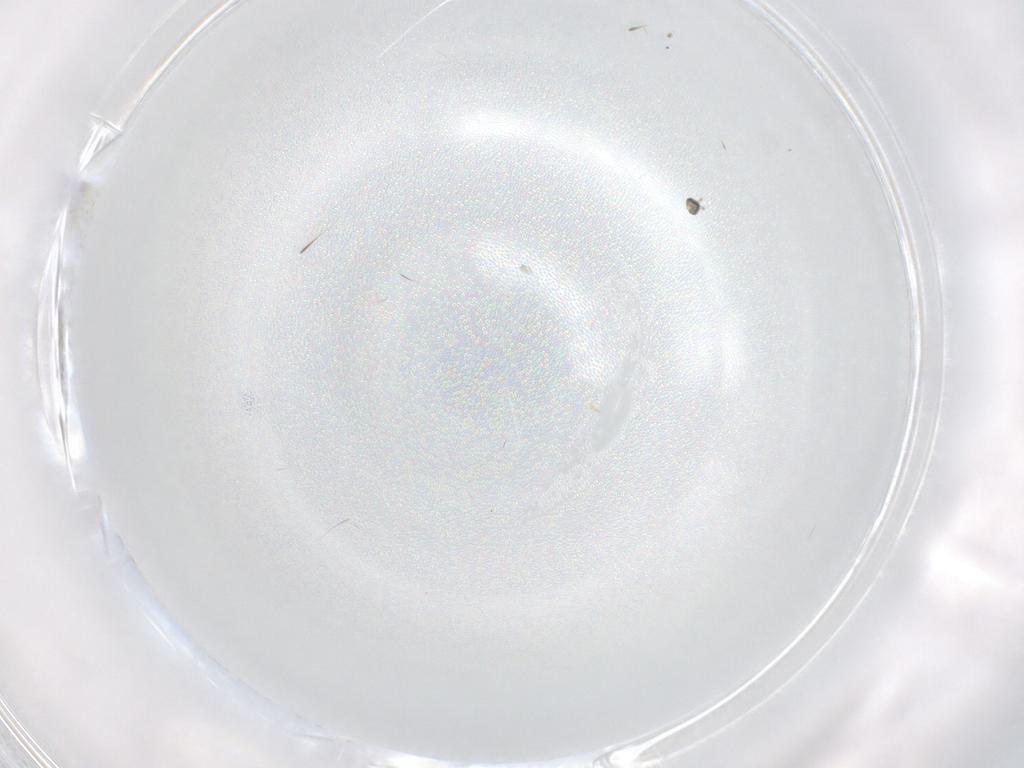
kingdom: Animalia
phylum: Arthropoda
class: Insecta
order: Diptera
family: Cecidomyiidae
